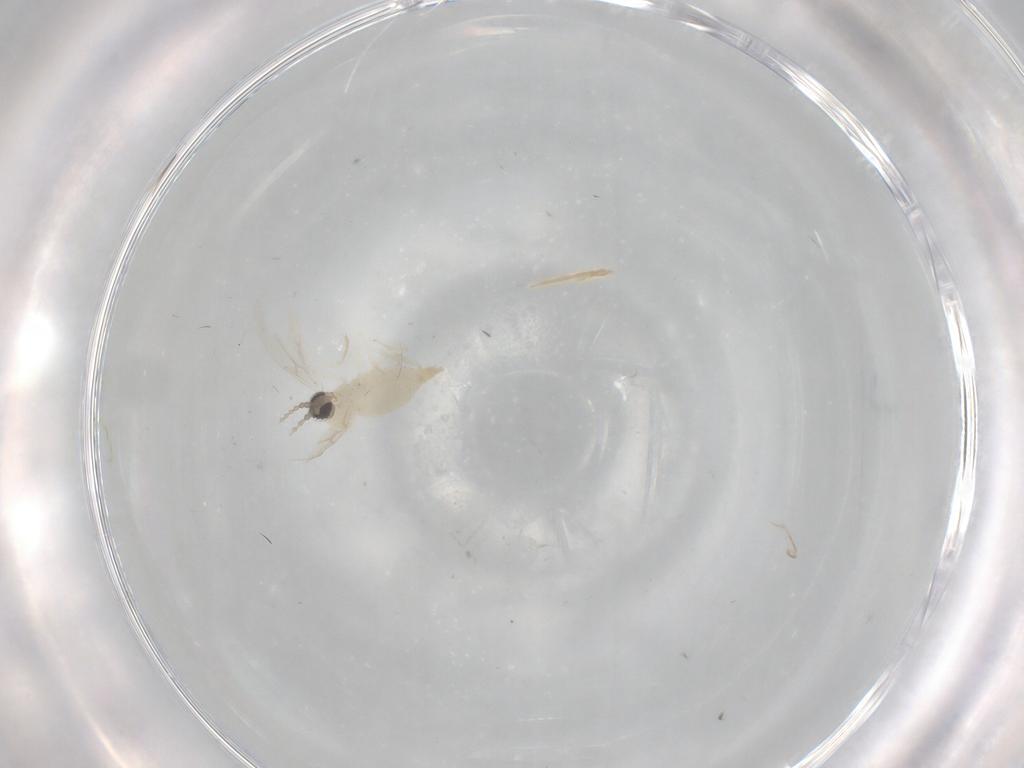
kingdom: Animalia
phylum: Arthropoda
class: Insecta
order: Diptera
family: Cecidomyiidae
